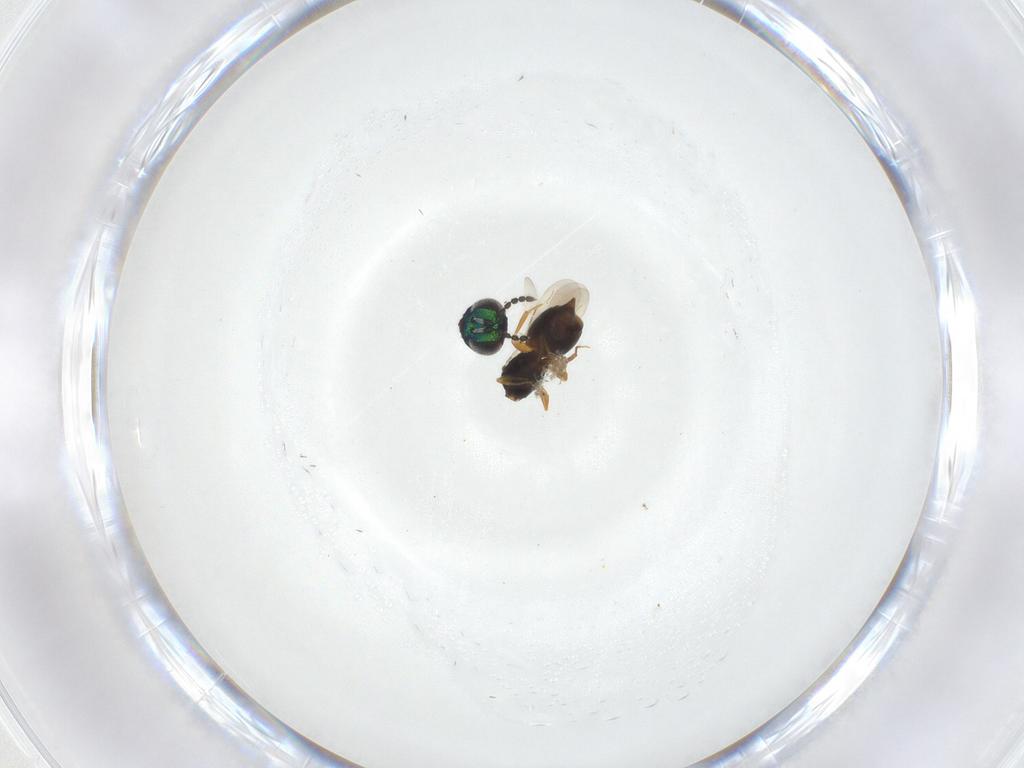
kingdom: Animalia
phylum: Arthropoda
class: Insecta
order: Hymenoptera
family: Eulophidae
